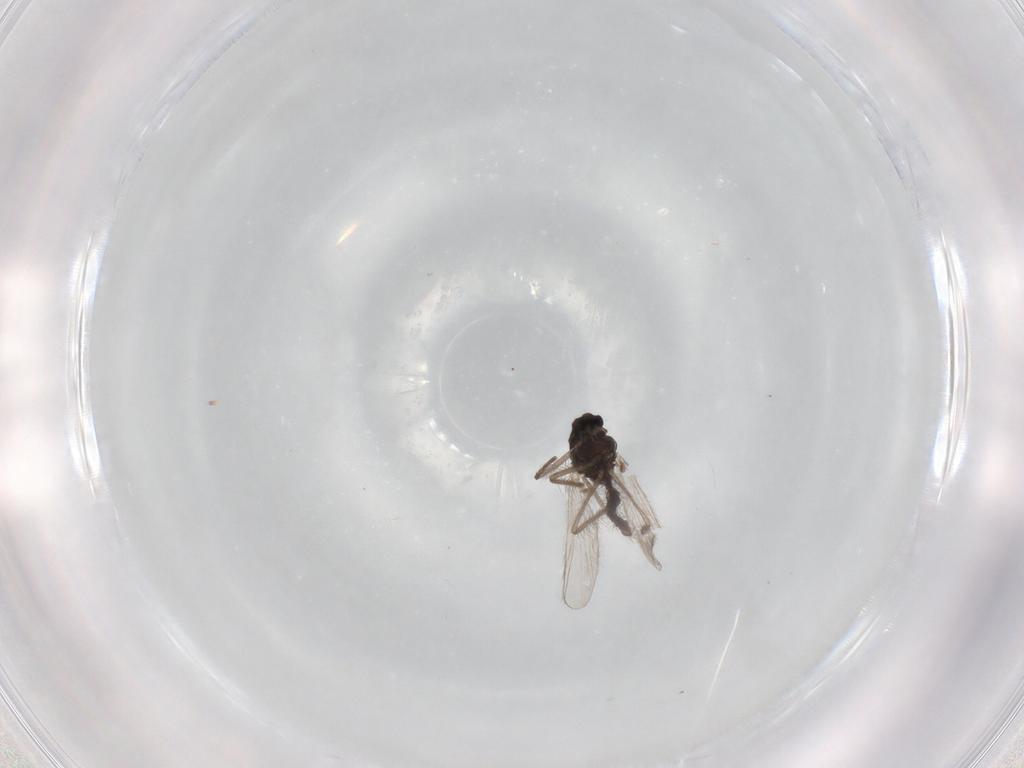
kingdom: Animalia
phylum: Arthropoda
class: Insecta
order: Diptera
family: Chironomidae
